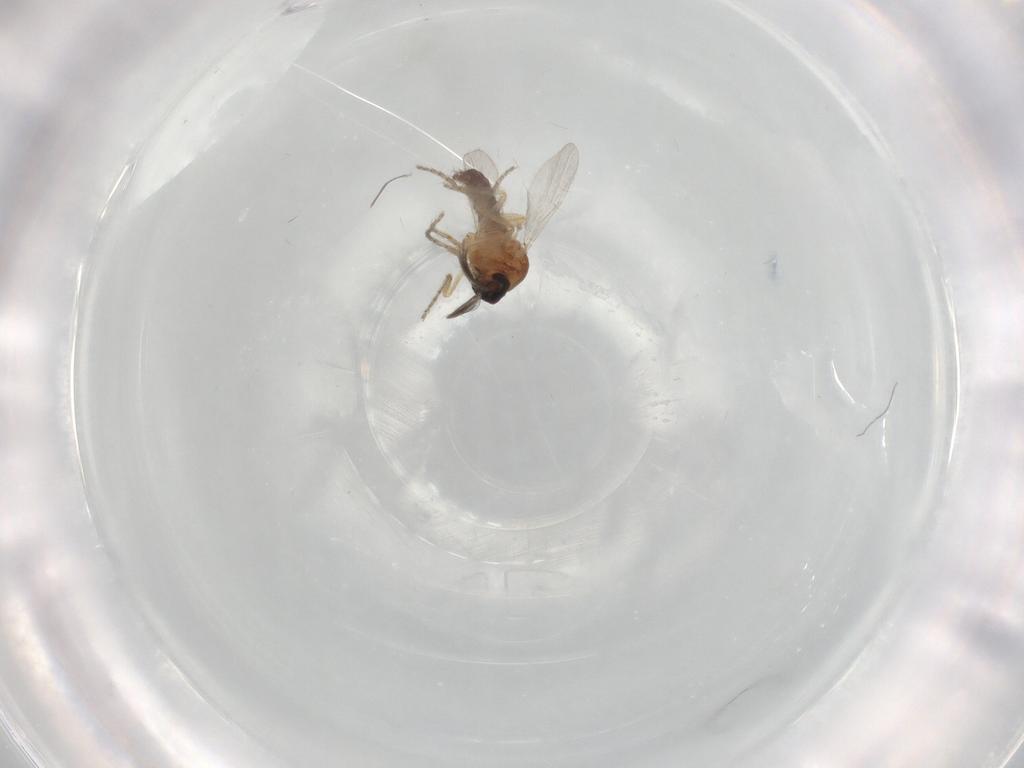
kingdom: Animalia
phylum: Arthropoda
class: Insecta
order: Diptera
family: Ceratopogonidae
